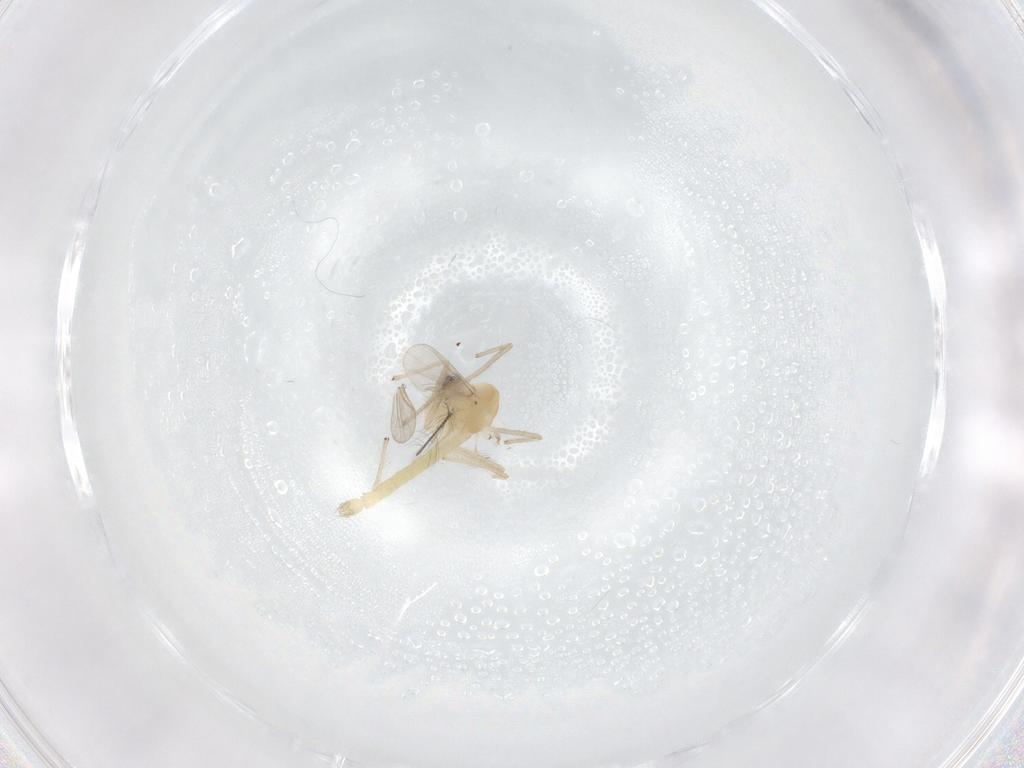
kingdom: Animalia
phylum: Arthropoda
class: Insecta
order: Diptera
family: Chironomidae
